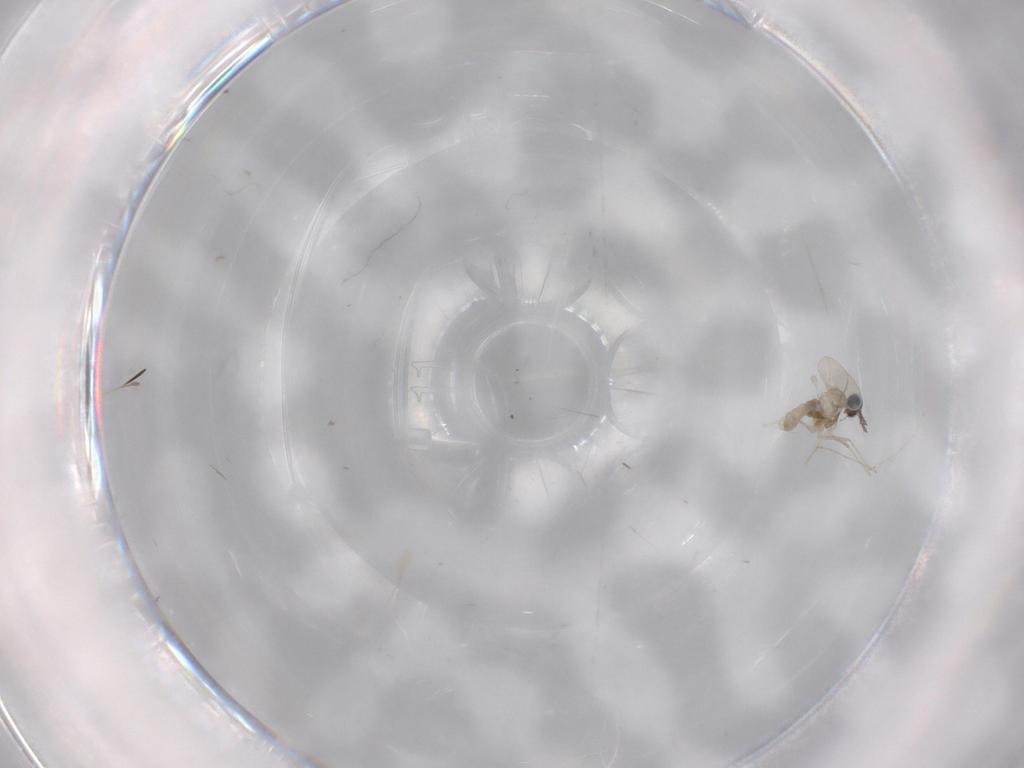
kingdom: Animalia
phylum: Arthropoda
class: Insecta
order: Diptera
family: Cecidomyiidae
